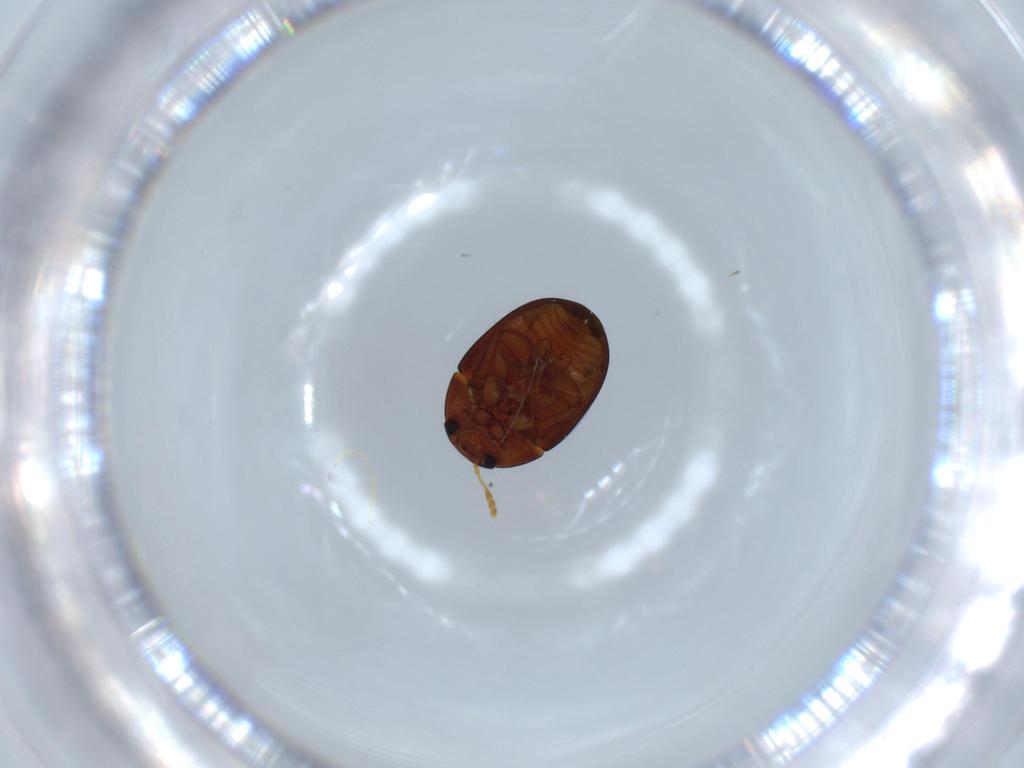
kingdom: Animalia
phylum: Arthropoda
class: Insecta
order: Coleoptera
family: Phalacridae
